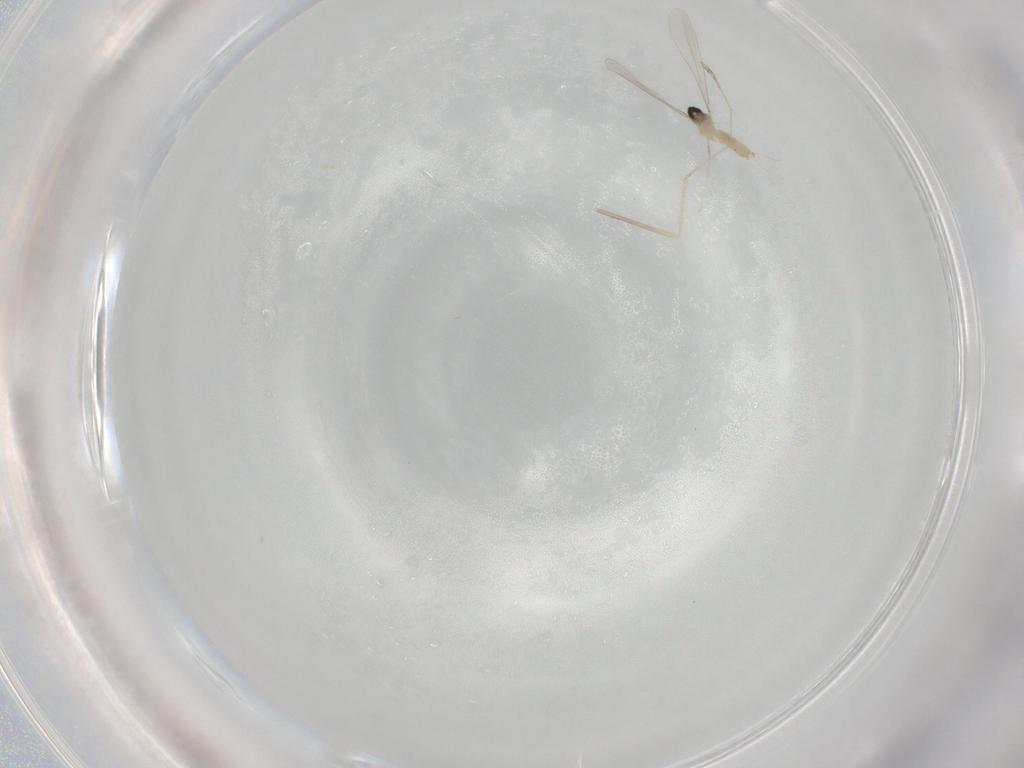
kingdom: Animalia
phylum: Arthropoda
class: Insecta
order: Diptera
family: Cecidomyiidae
